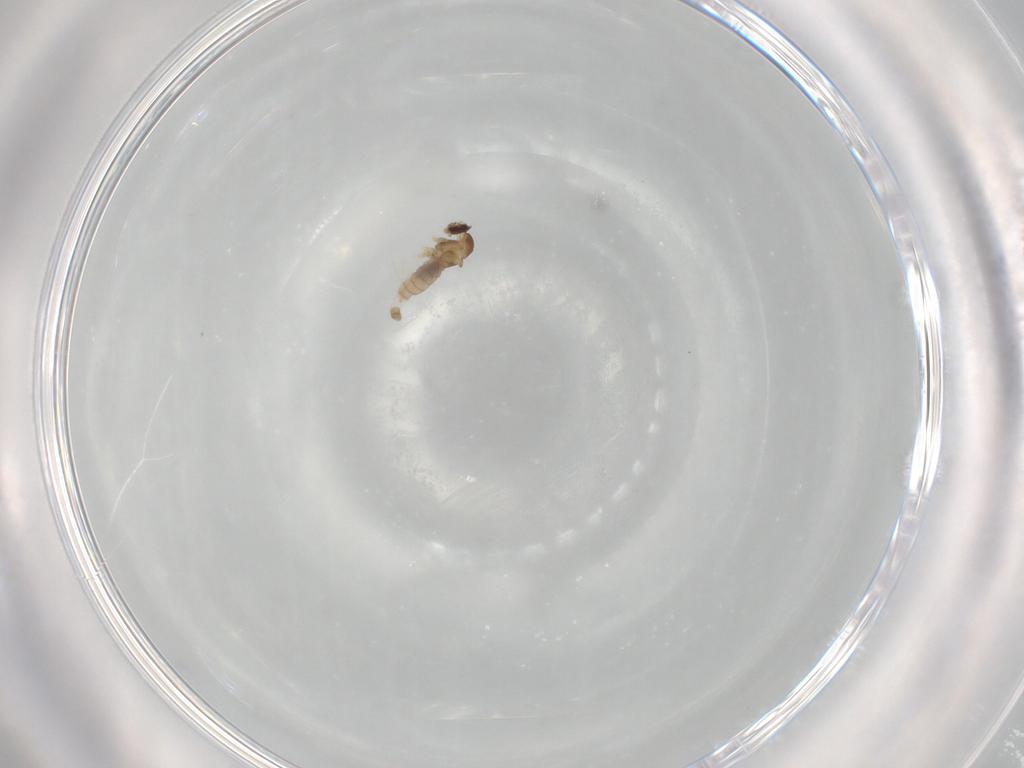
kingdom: Animalia
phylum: Arthropoda
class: Insecta
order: Diptera
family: Cecidomyiidae
